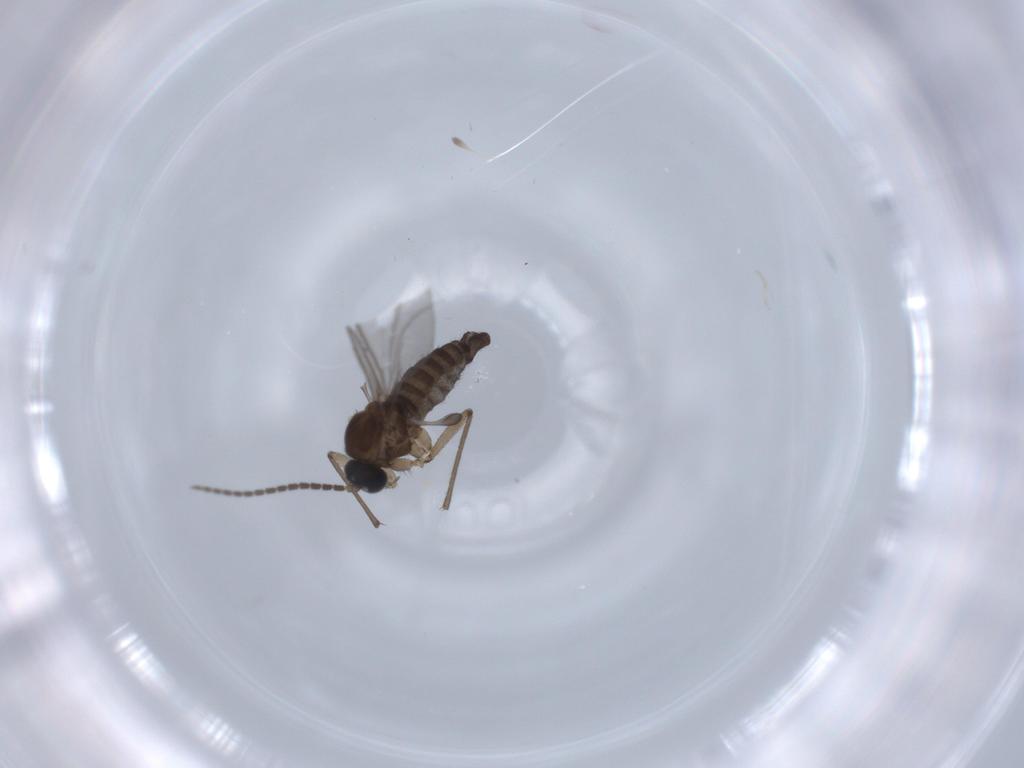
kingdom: Animalia
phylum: Arthropoda
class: Insecta
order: Diptera
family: Sciaridae
